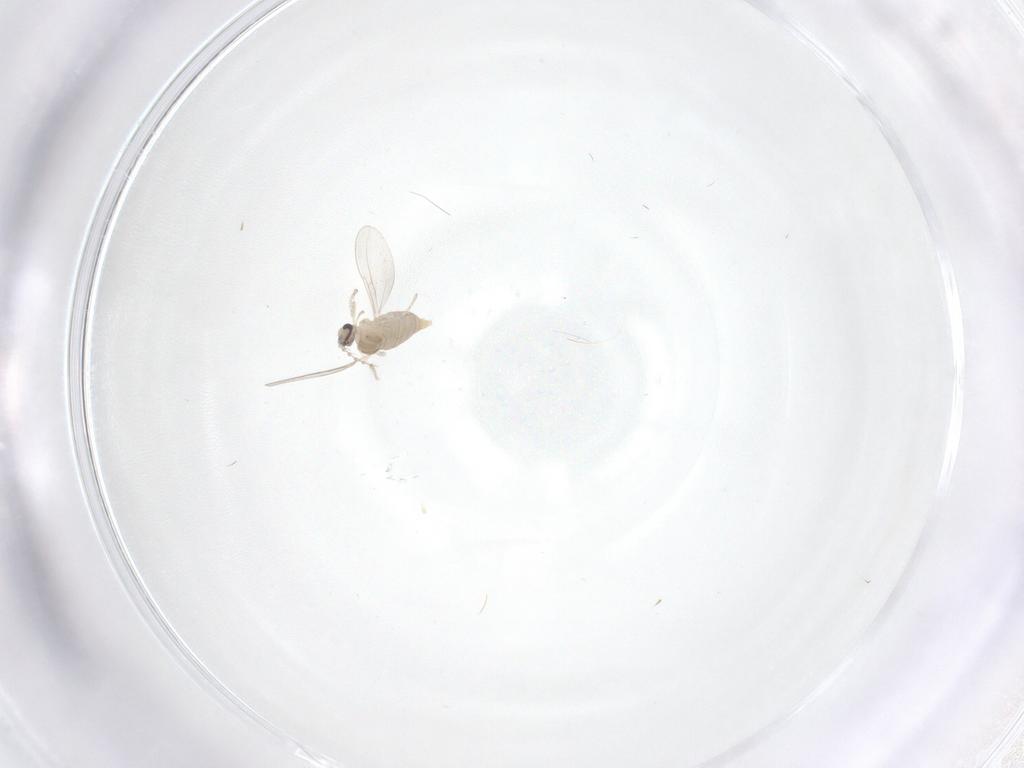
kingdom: Animalia
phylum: Arthropoda
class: Insecta
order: Diptera
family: Cecidomyiidae
